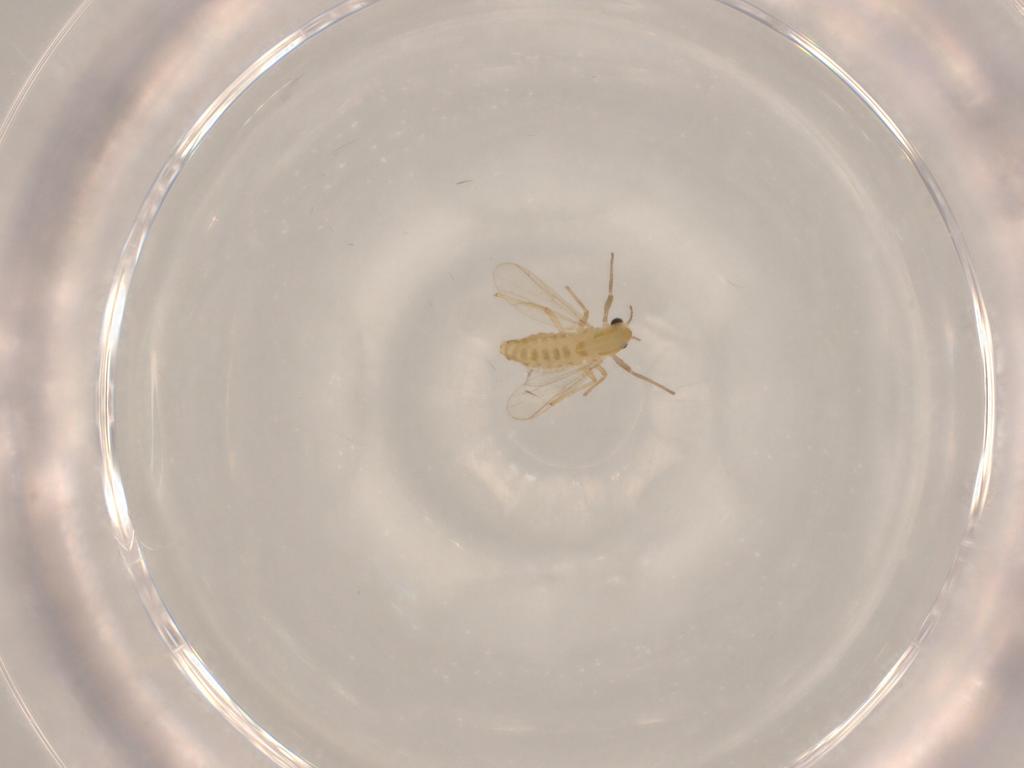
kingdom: Animalia
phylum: Arthropoda
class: Insecta
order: Diptera
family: Chironomidae
